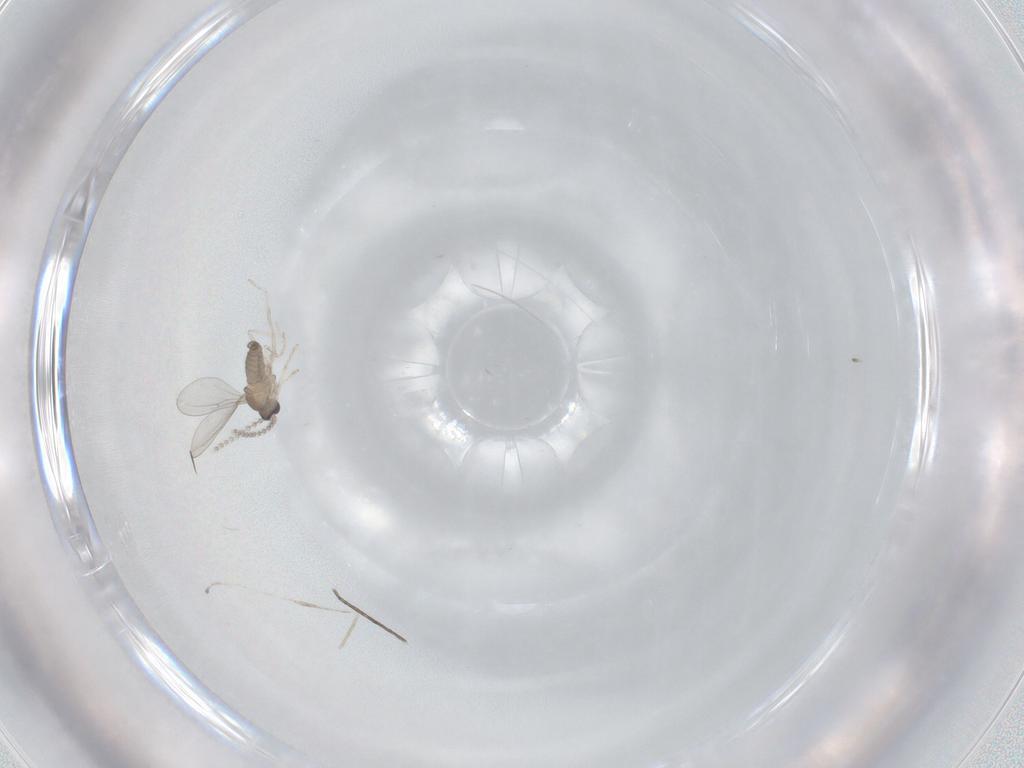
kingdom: Animalia
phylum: Arthropoda
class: Insecta
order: Diptera
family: Cecidomyiidae
